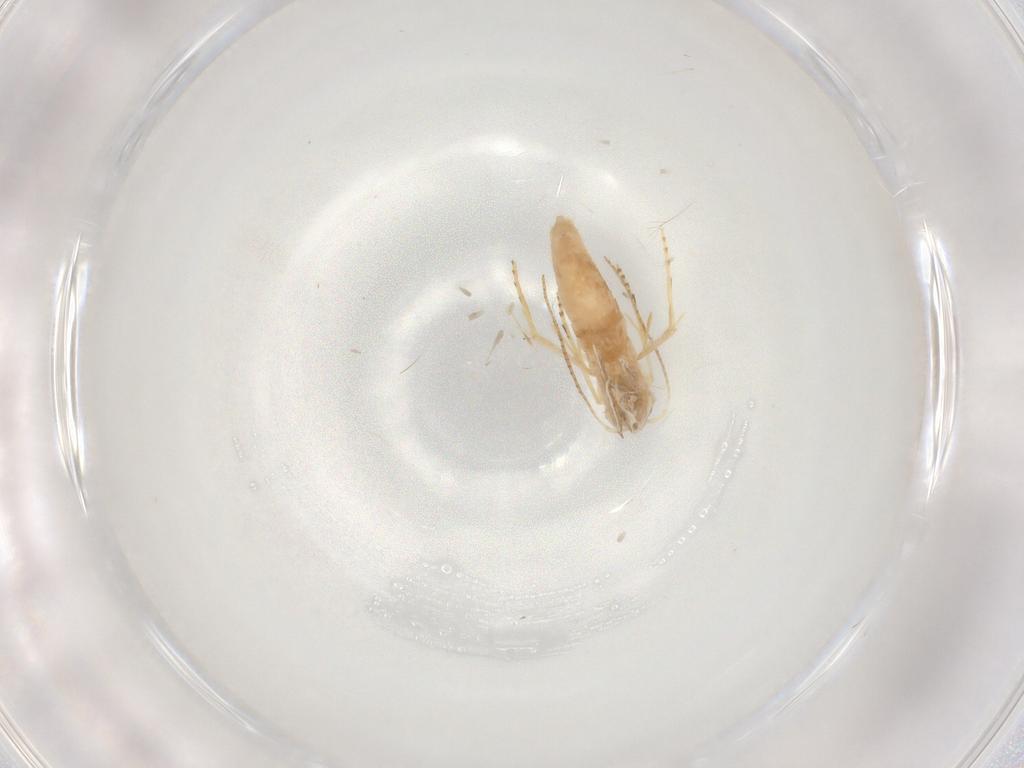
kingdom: Animalia
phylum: Arthropoda
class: Insecta
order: Lepidoptera
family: Depressariidae
